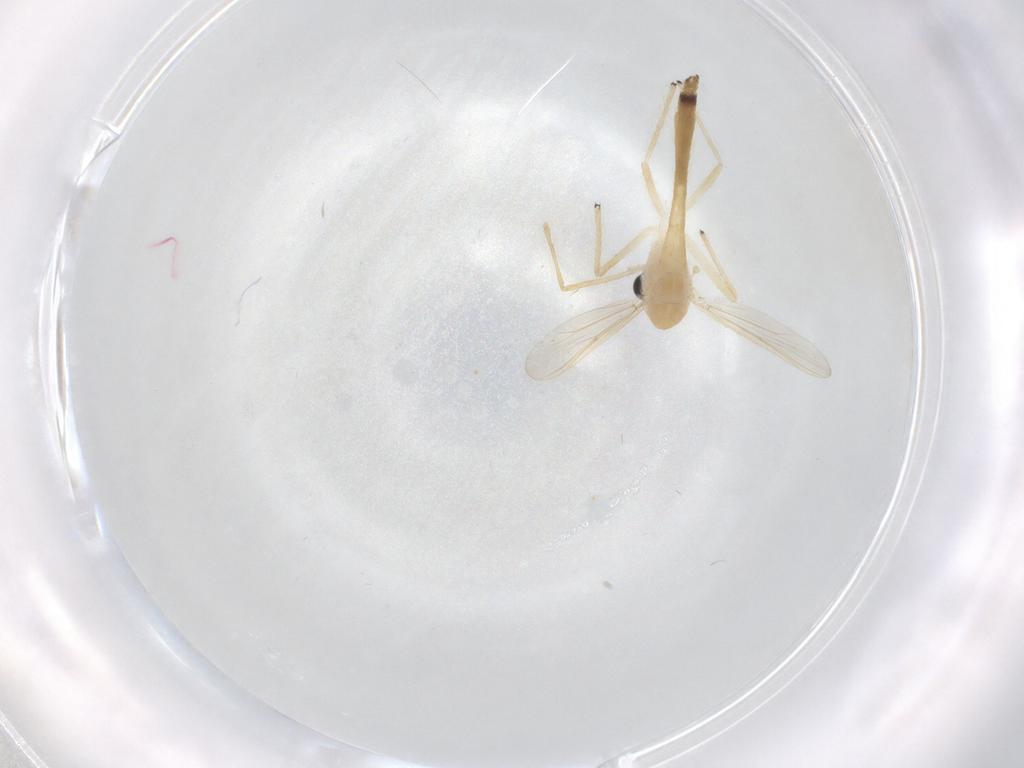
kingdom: Animalia
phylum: Arthropoda
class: Insecta
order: Diptera
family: Chironomidae
